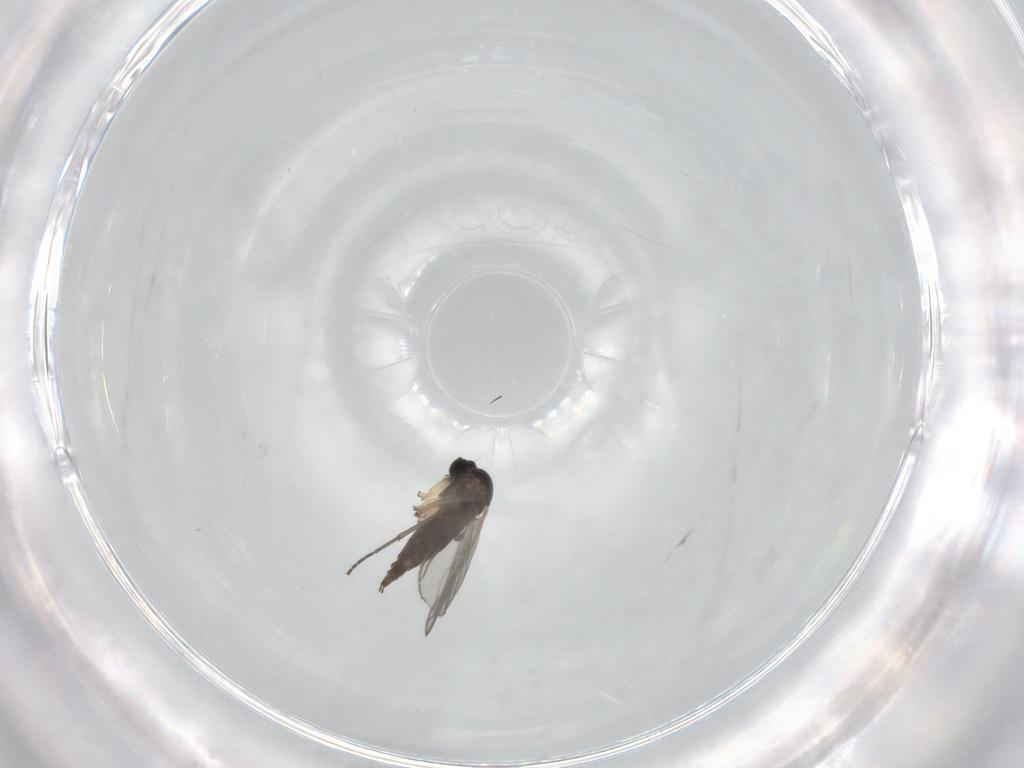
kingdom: Animalia
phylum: Arthropoda
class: Insecta
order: Diptera
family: Sciaridae
